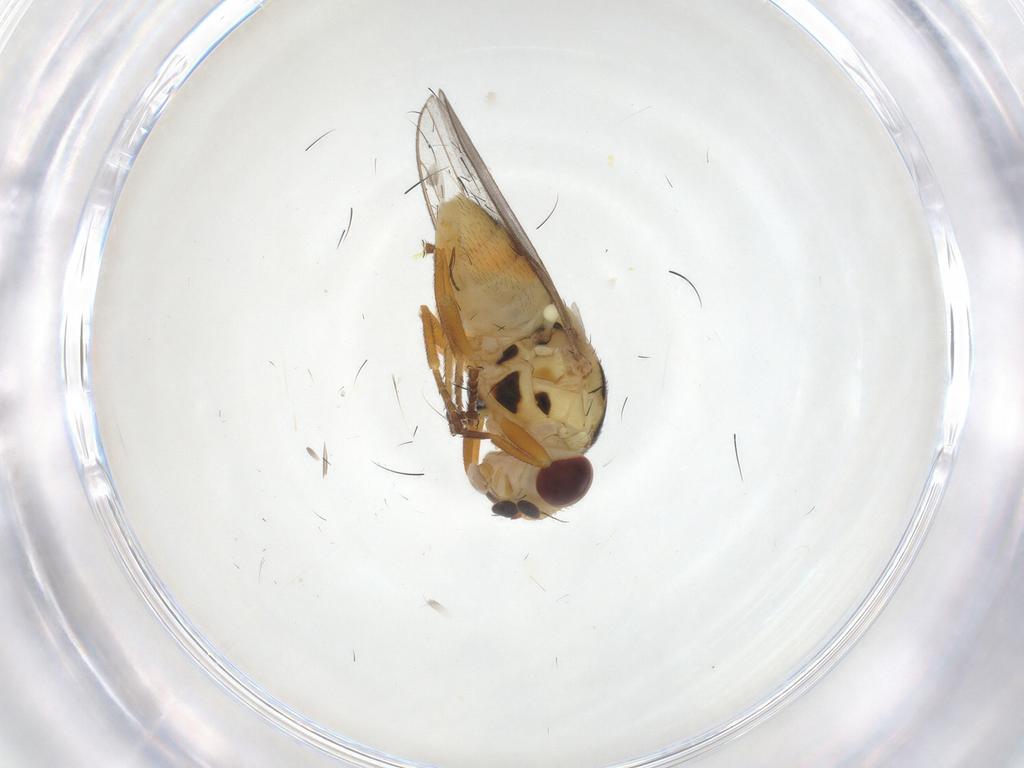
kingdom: Animalia
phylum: Arthropoda
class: Insecta
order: Diptera
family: Chloropidae
